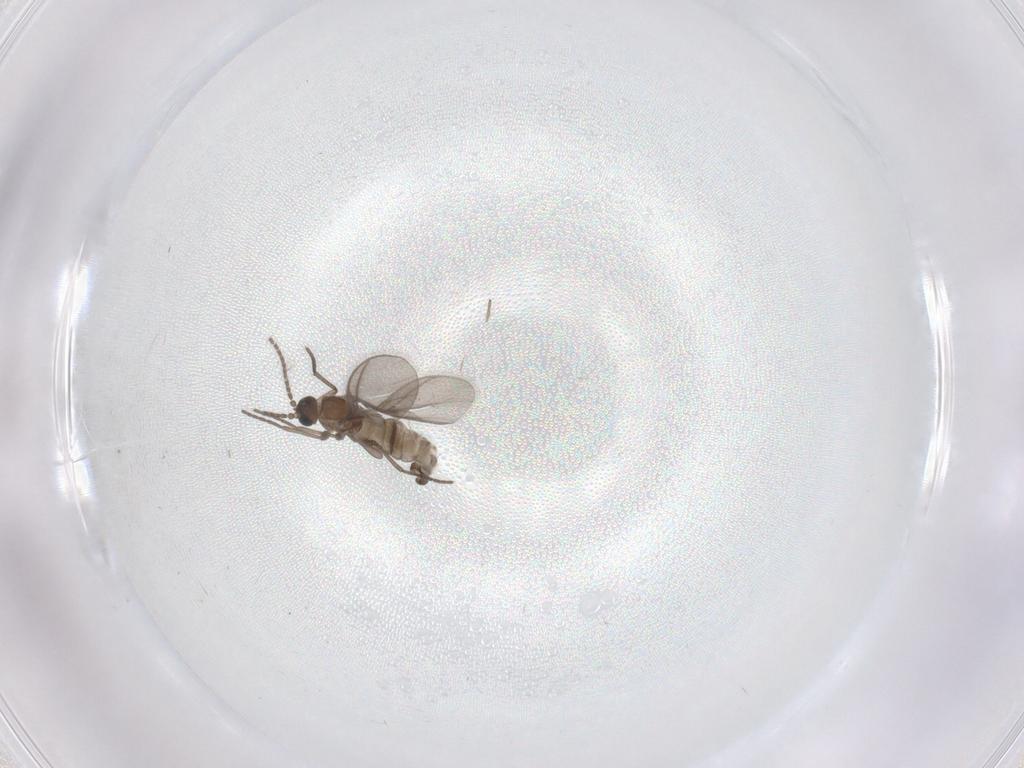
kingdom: Animalia
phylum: Arthropoda
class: Insecta
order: Diptera
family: Sciaridae
